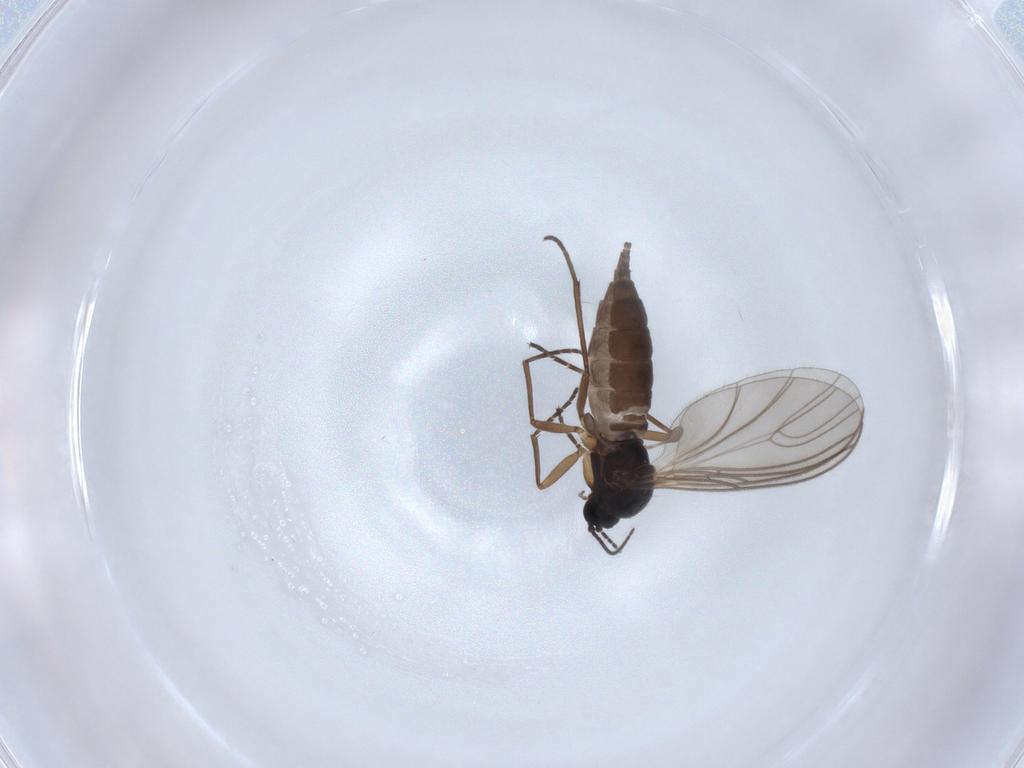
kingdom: Animalia
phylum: Arthropoda
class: Insecta
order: Diptera
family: Sciaridae
